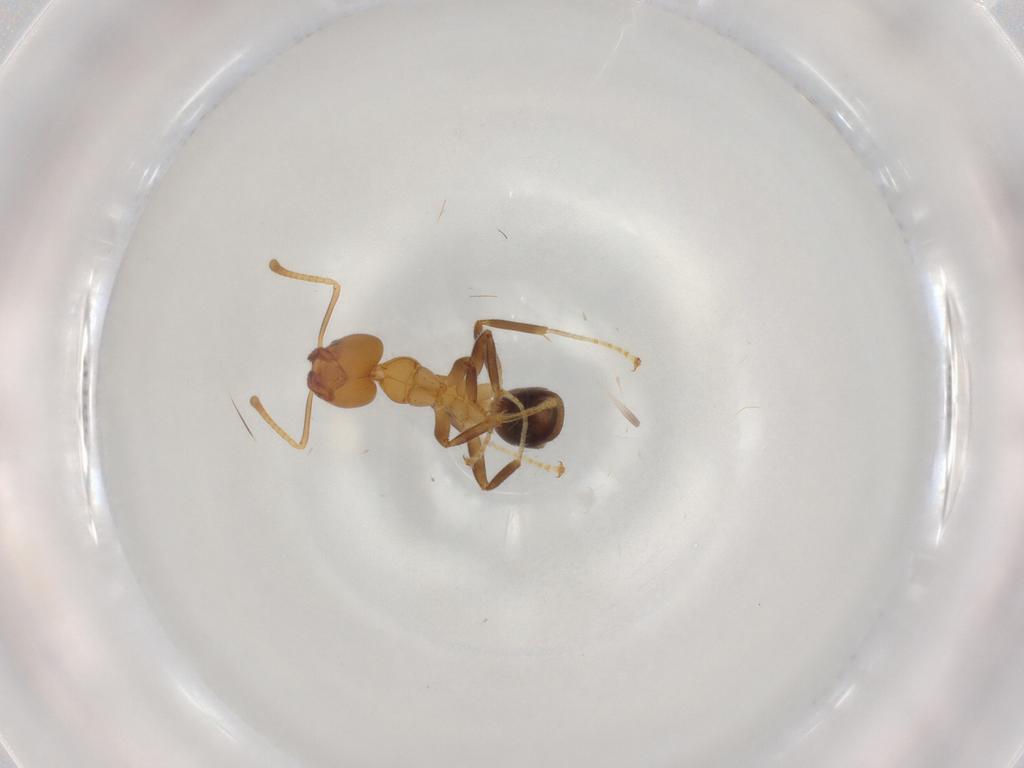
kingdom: Animalia
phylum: Arthropoda
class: Insecta
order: Hymenoptera
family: Formicidae
